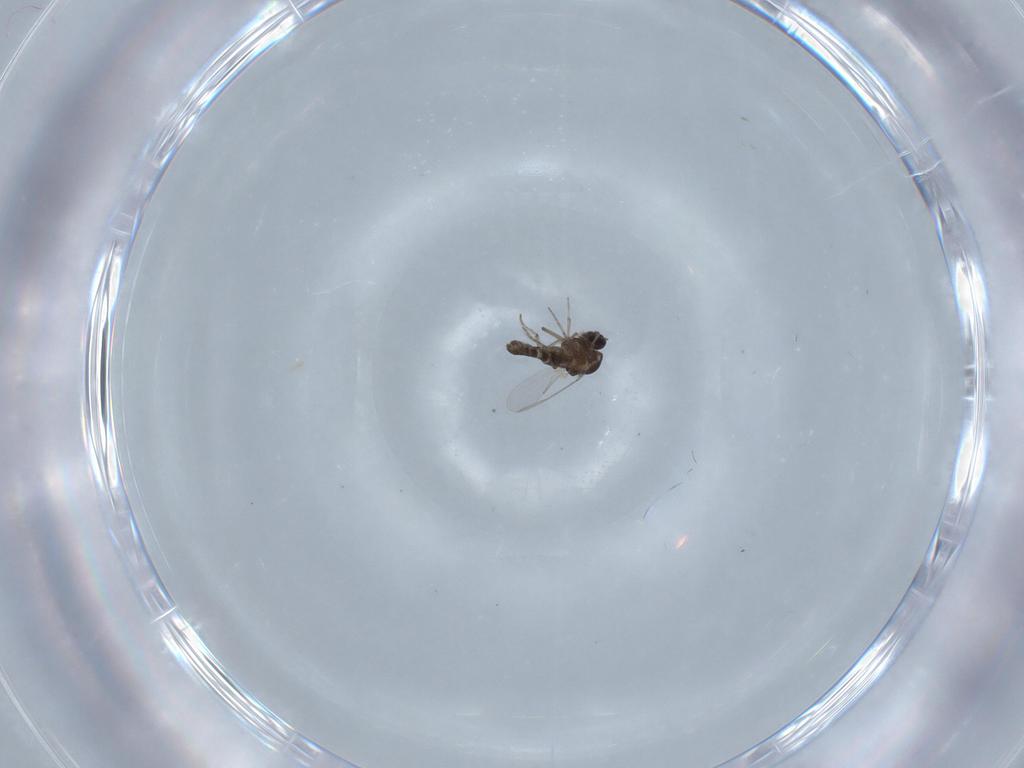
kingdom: Animalia
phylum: Arthropoda
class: Insecta
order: Diptera
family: Ceratopogonidae
